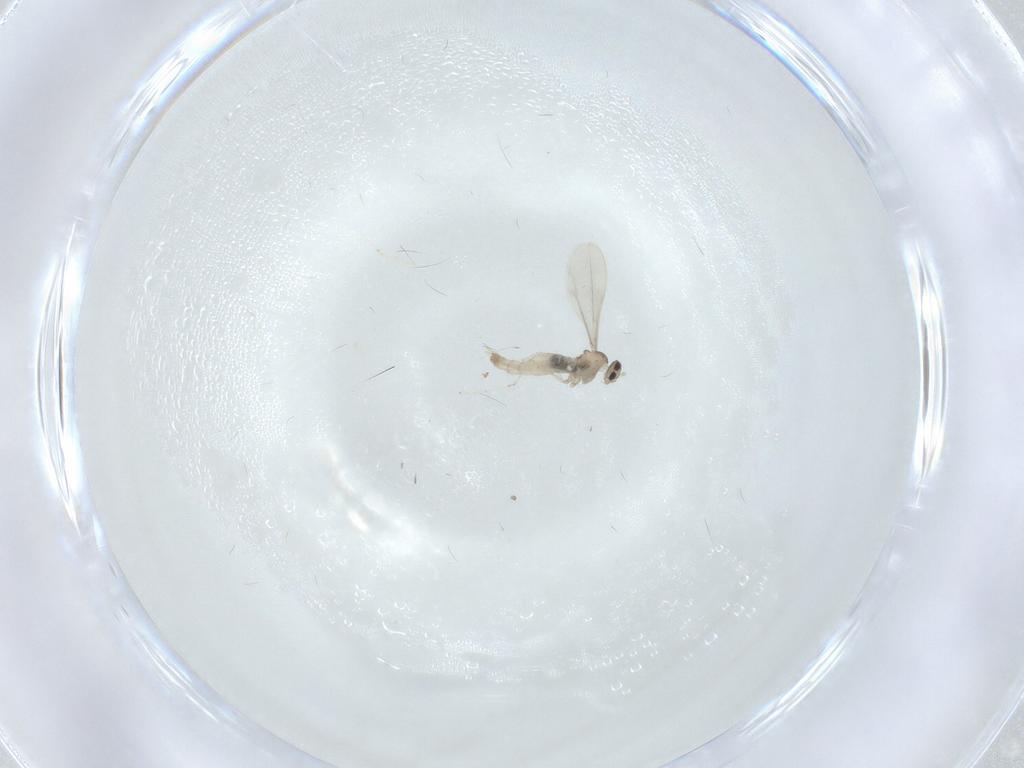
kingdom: Animalia
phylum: Arthropoda
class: Insecta
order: Diptera
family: Cecidomyiidae
